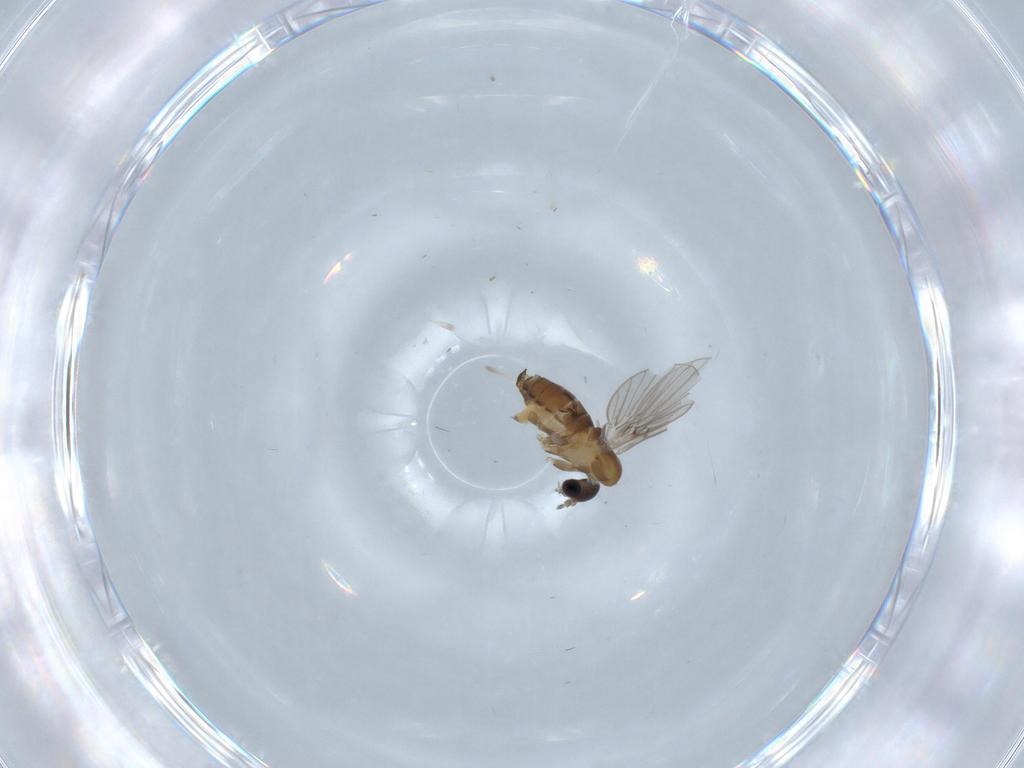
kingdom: Animalia
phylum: Arthropoda
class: Insecta
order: Diptera
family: Psychodidae
